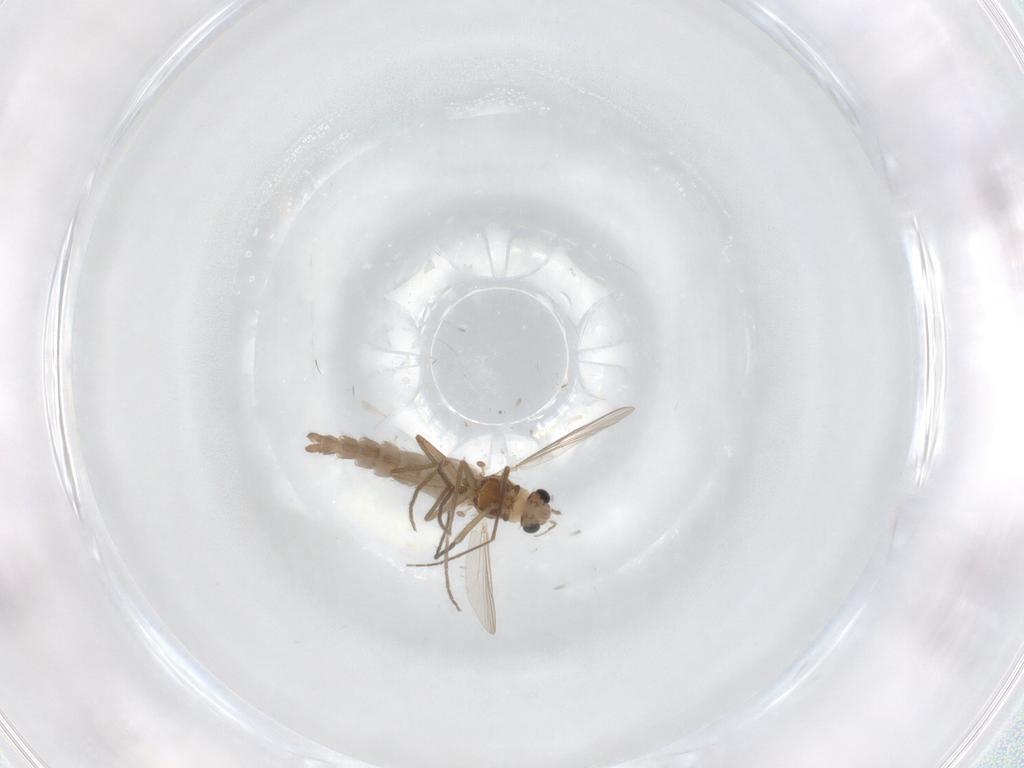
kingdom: Animalia
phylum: Arthropoda
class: Insecta
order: Diptera
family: Chironomidae
